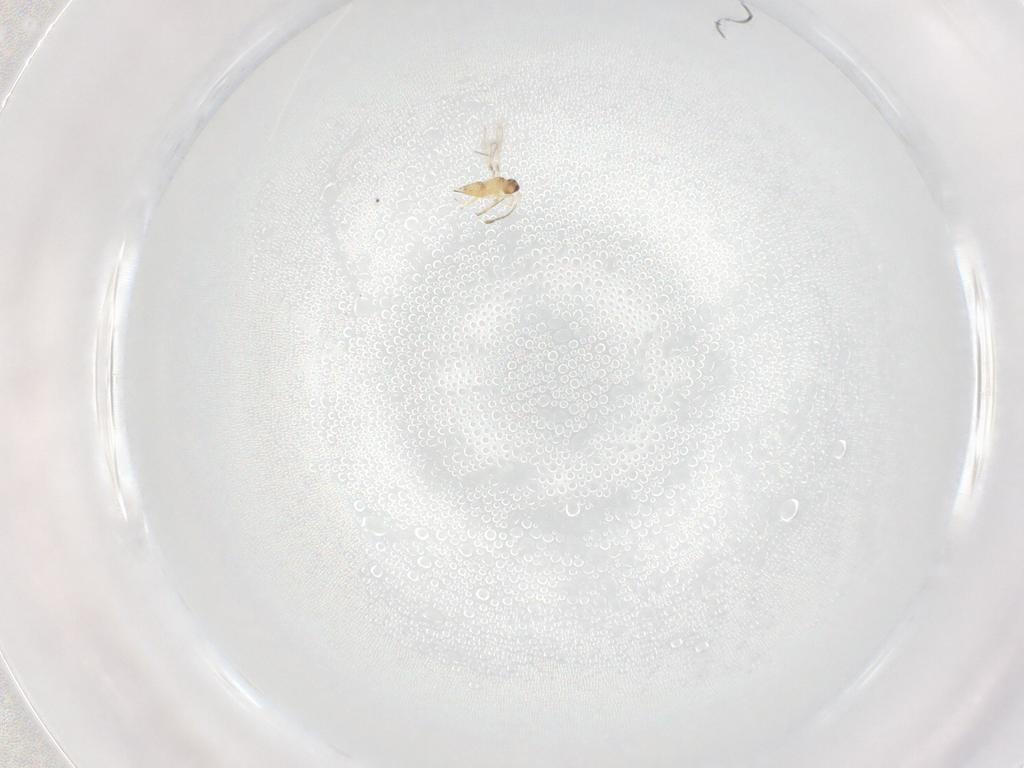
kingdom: Animalia
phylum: Arthropoda
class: Insecta
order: Hymenoptera
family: Mymaridae
